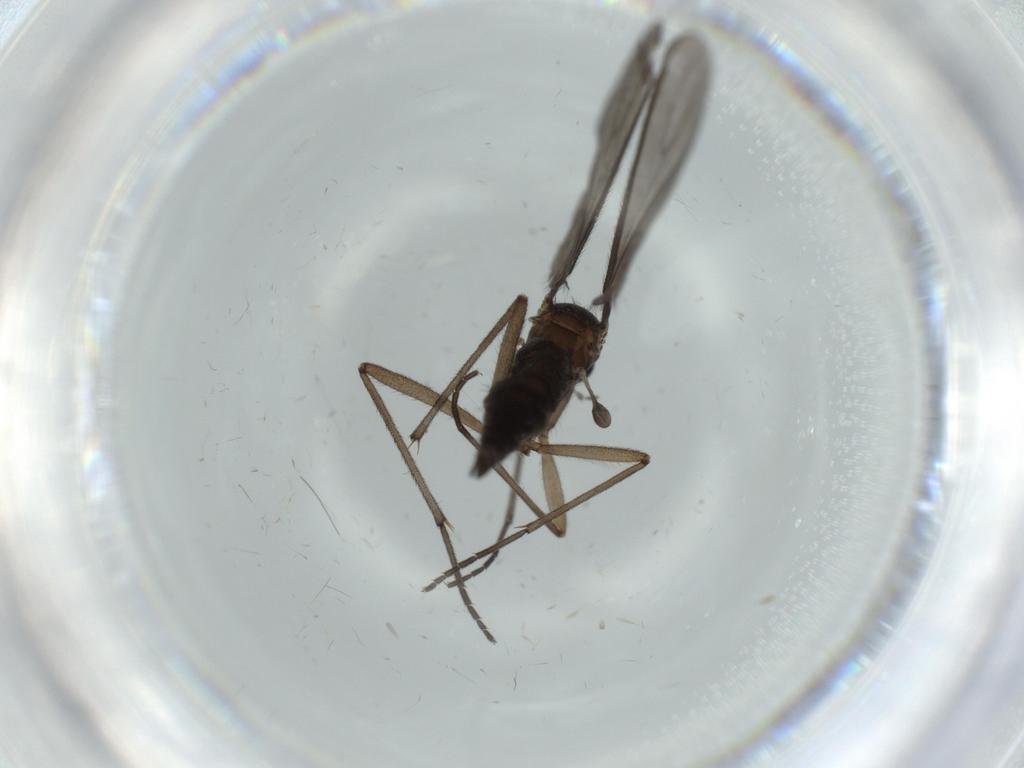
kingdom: Animalia
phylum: Arthropoda
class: Insecta
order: Diptera
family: Sciaridae
